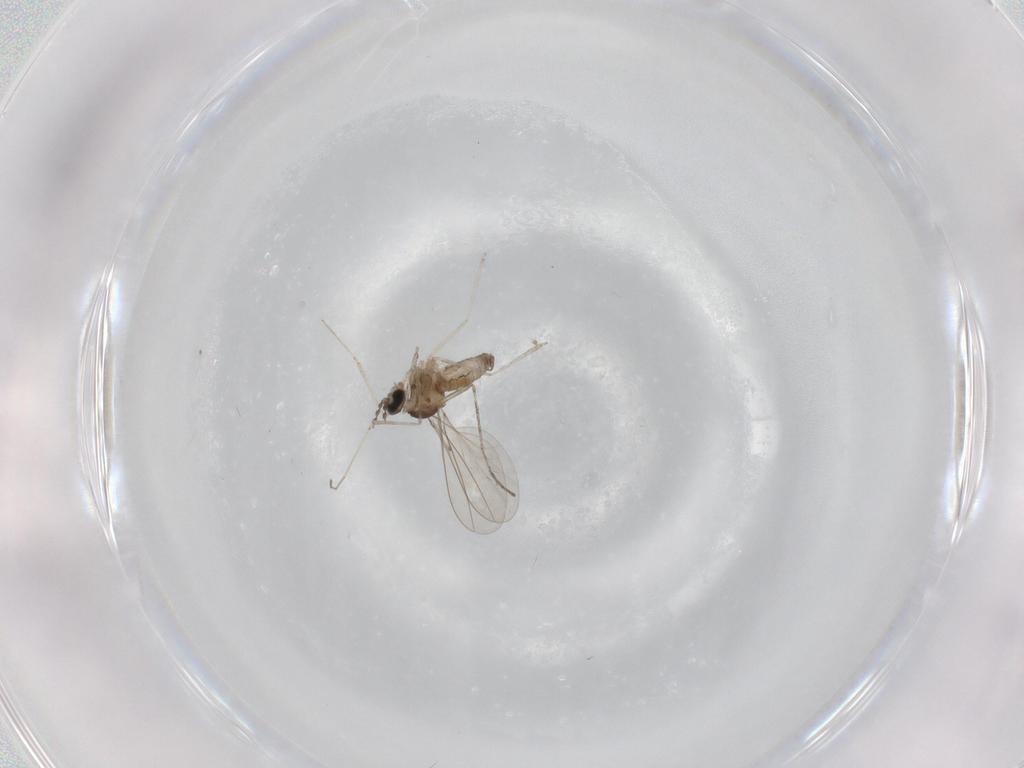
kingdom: Animalia
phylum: Arthropoda
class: Insecta
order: Diptera
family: Cecidomyiidae
